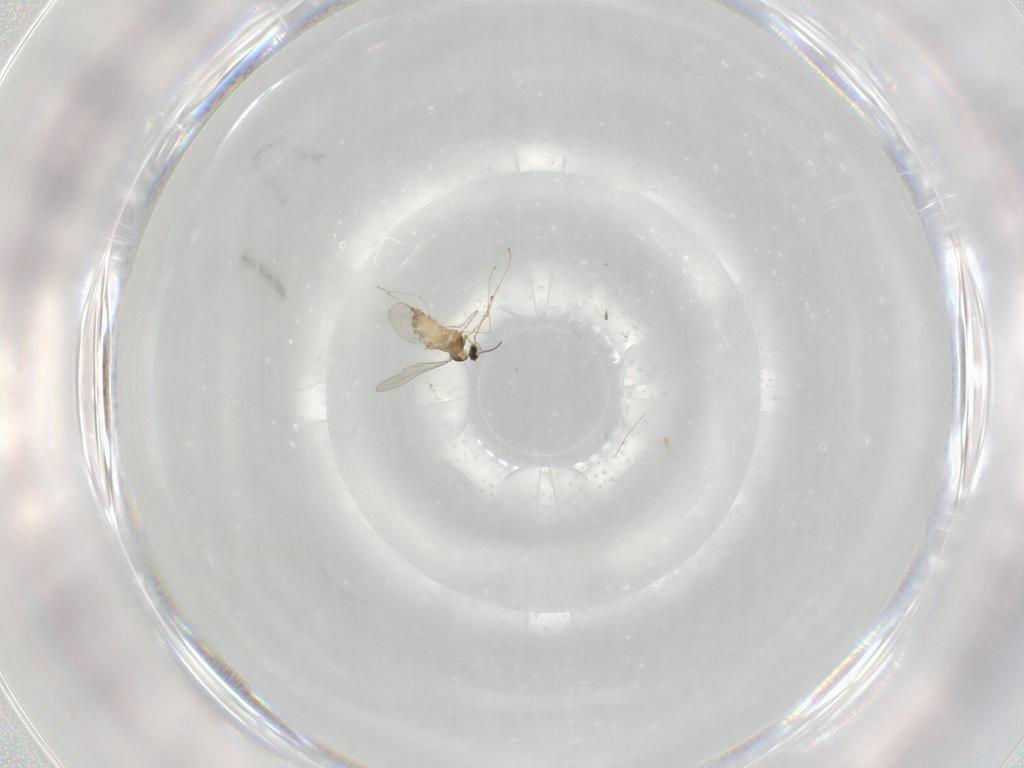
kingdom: Animalia
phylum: Arthropoda
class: Insecta
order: Diptera
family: Cecidomyiidae
